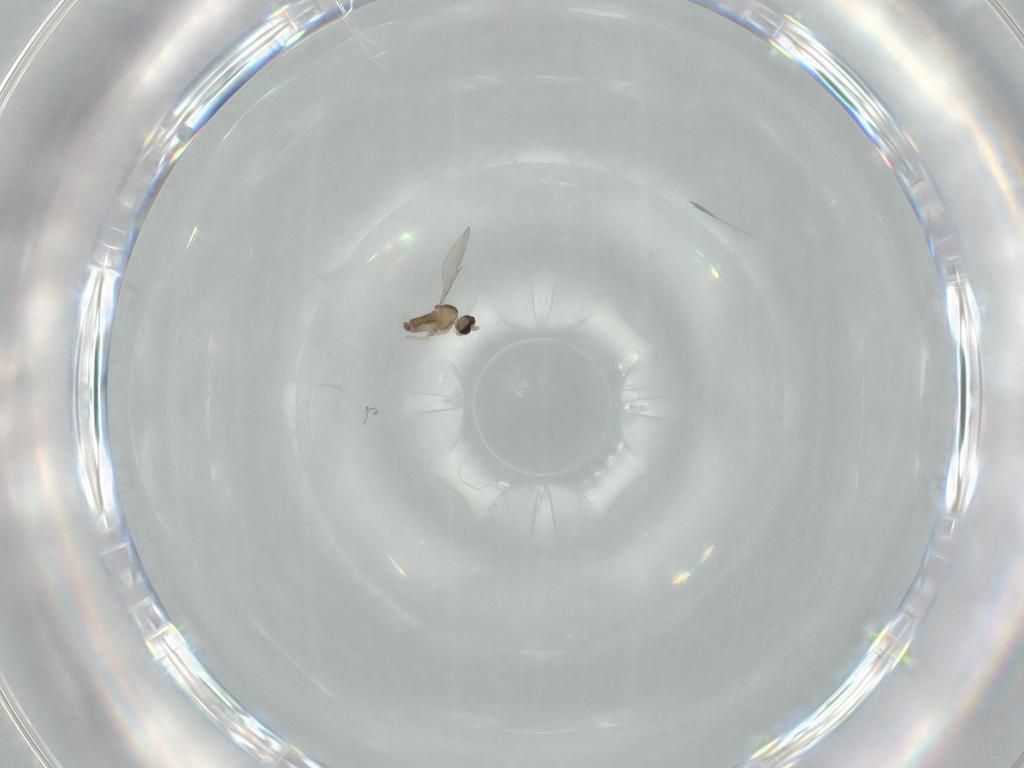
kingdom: Animalia
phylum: Arthropoda
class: Insecta
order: Diptera
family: Cecidomyiidae
